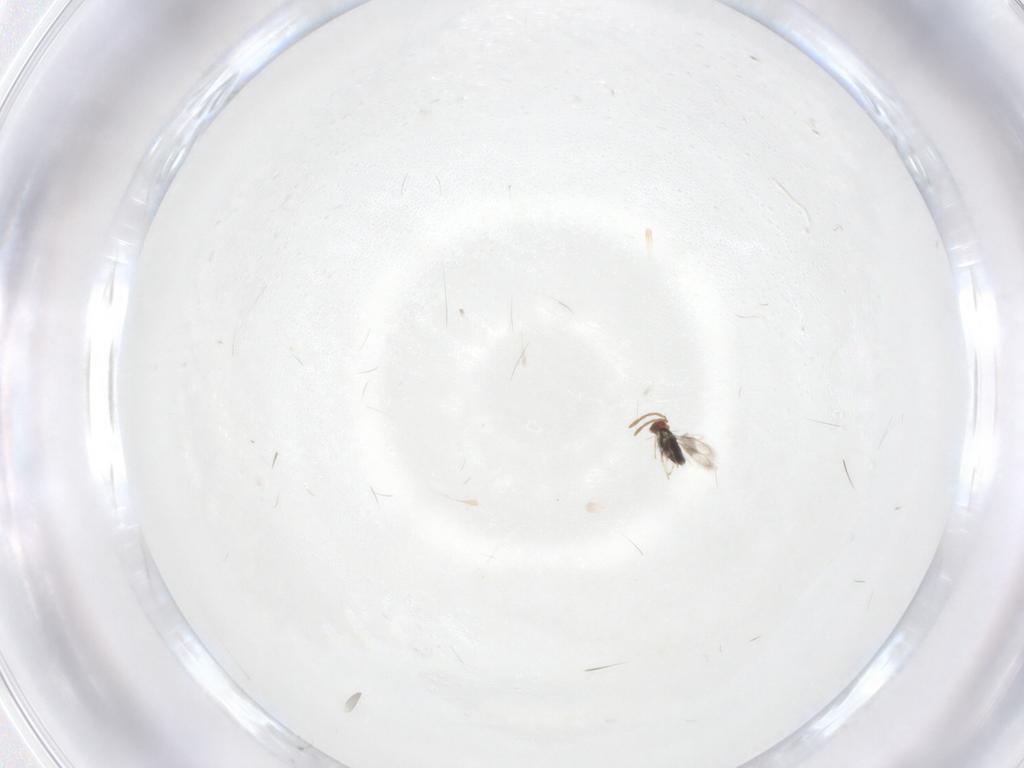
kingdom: Animalia
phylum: Arthropoda
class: Insecta
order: Hymenoptera
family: Azotidae
